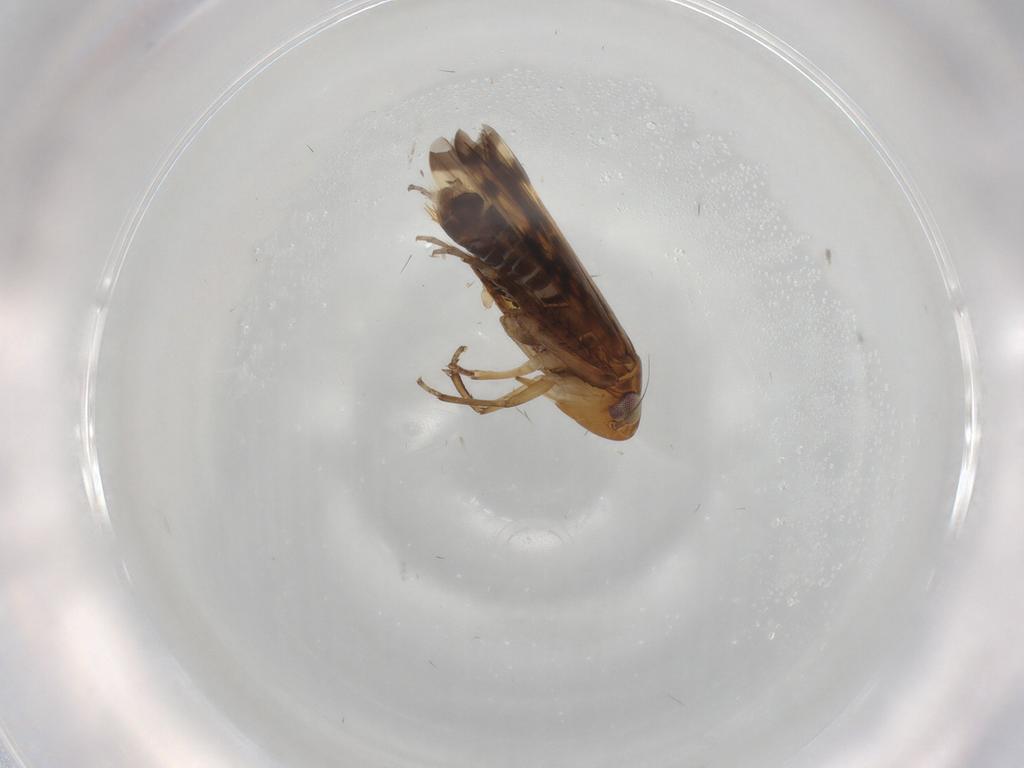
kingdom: Animalia
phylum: Arthropoda
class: Insecta
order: Hemiptera
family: Cicadellidae
